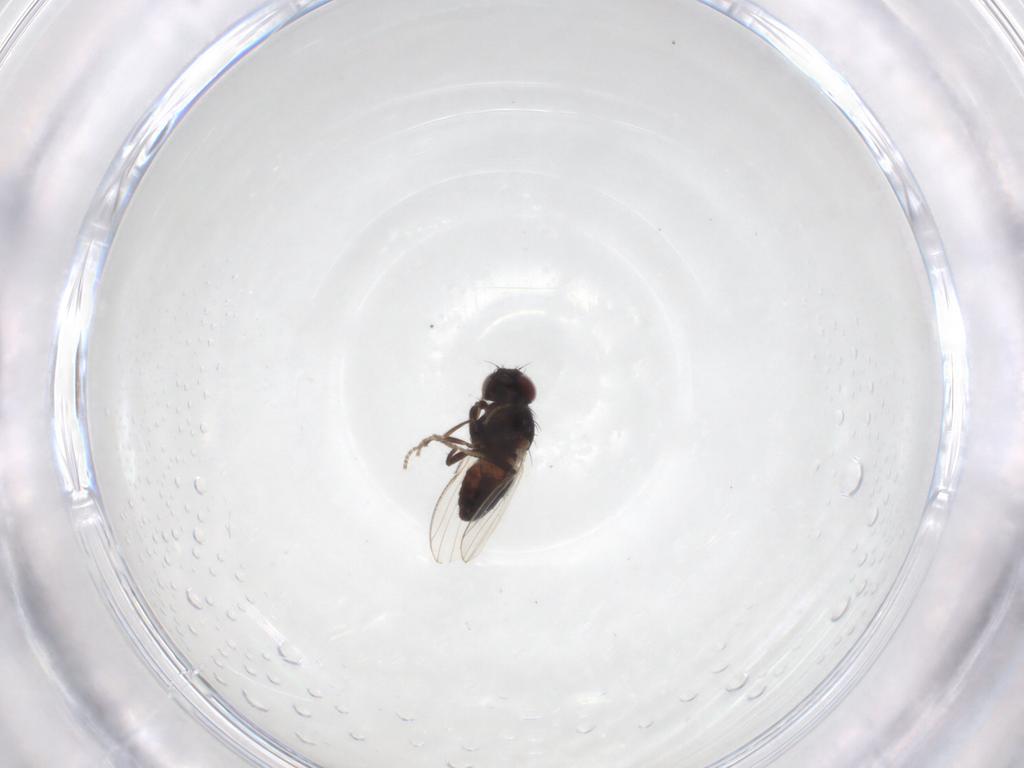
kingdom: Animalia
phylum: Arthropoda
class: Insecta
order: Diptera
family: Carnidae
